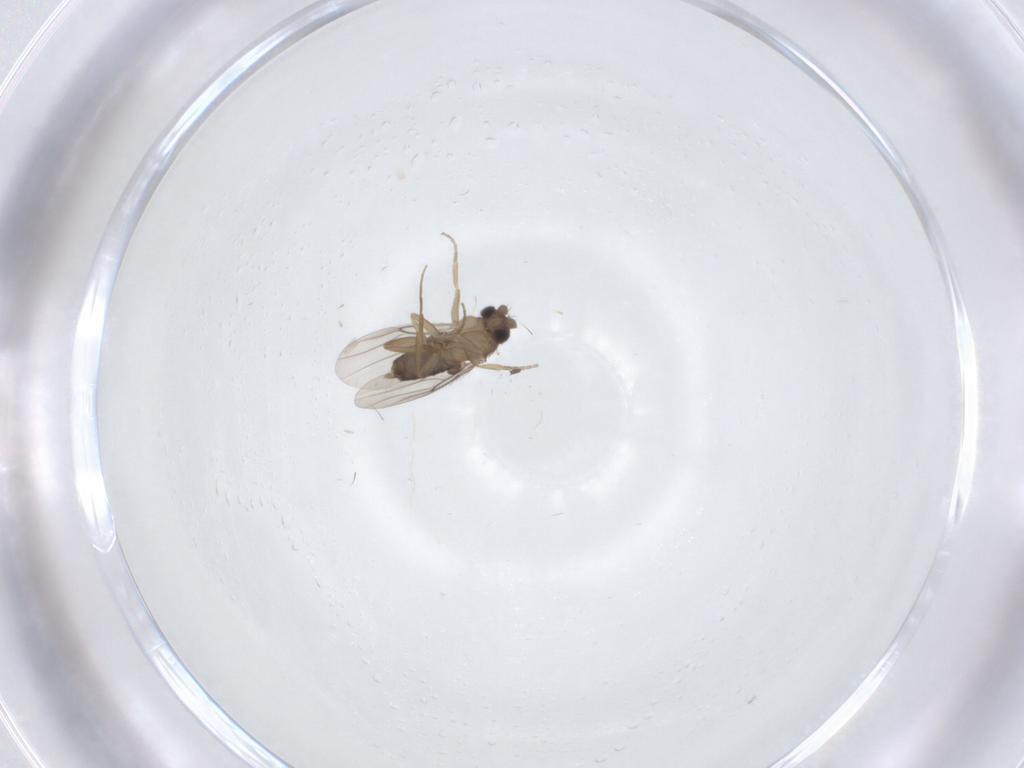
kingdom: Animalia
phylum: Arthropoda
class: Insecta
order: Diptera
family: Phoridae
